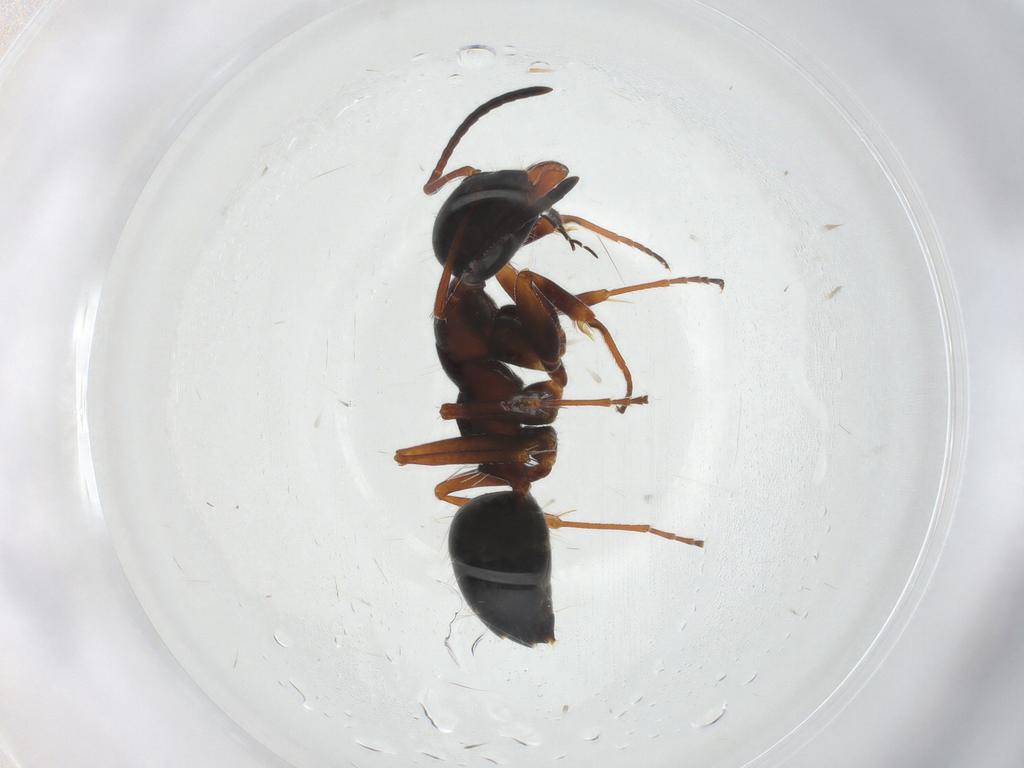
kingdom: Animalia
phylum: Arthropoda
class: Insecta
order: Hymenoptera
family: Formicidae
